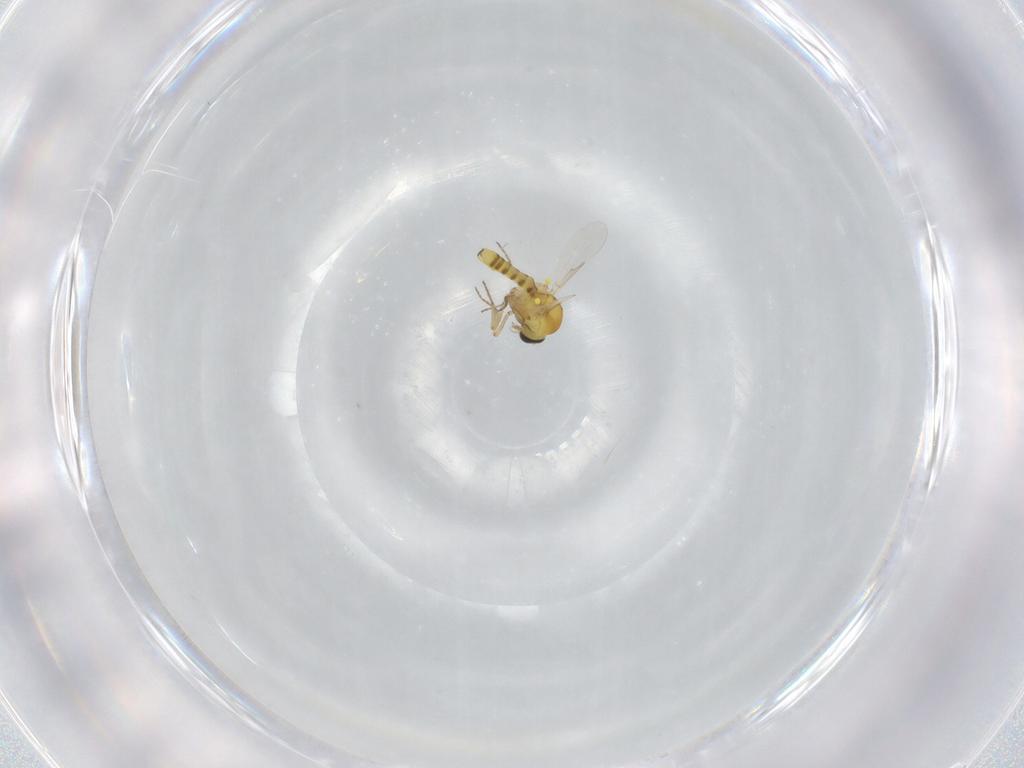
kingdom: Animalia
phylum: Arthropoda
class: Insecta
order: Diptera
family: Ceratopogonidae
